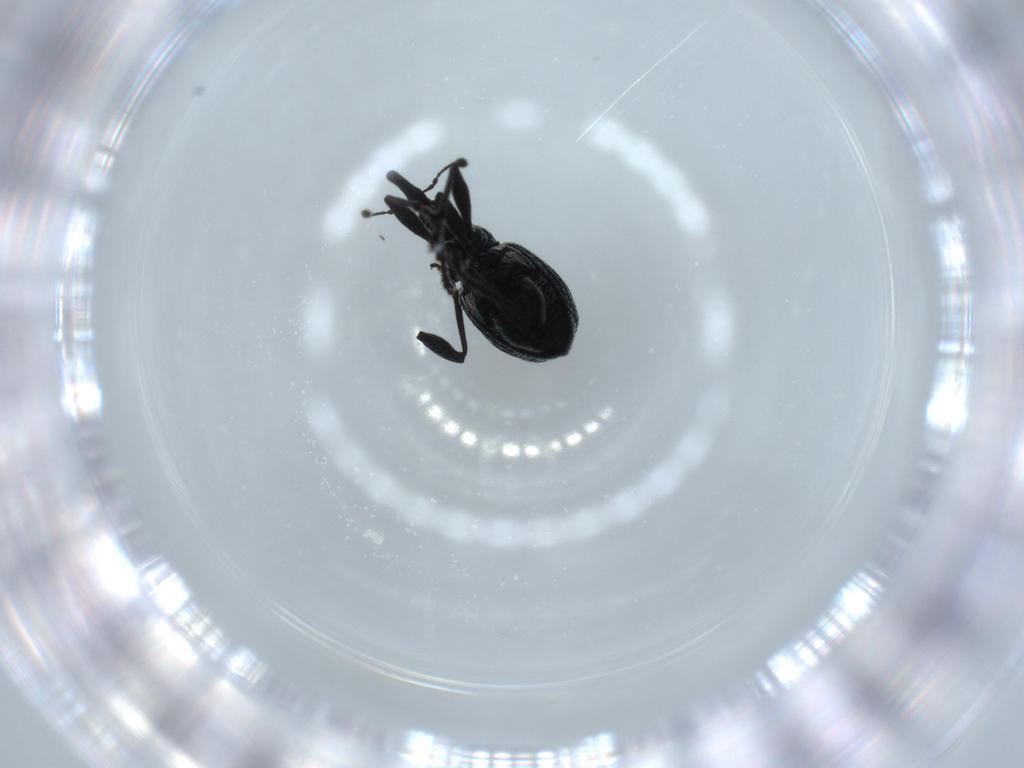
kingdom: Animalia
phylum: Arthropoda
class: Insecta
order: Coleoptera
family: Brentidae
